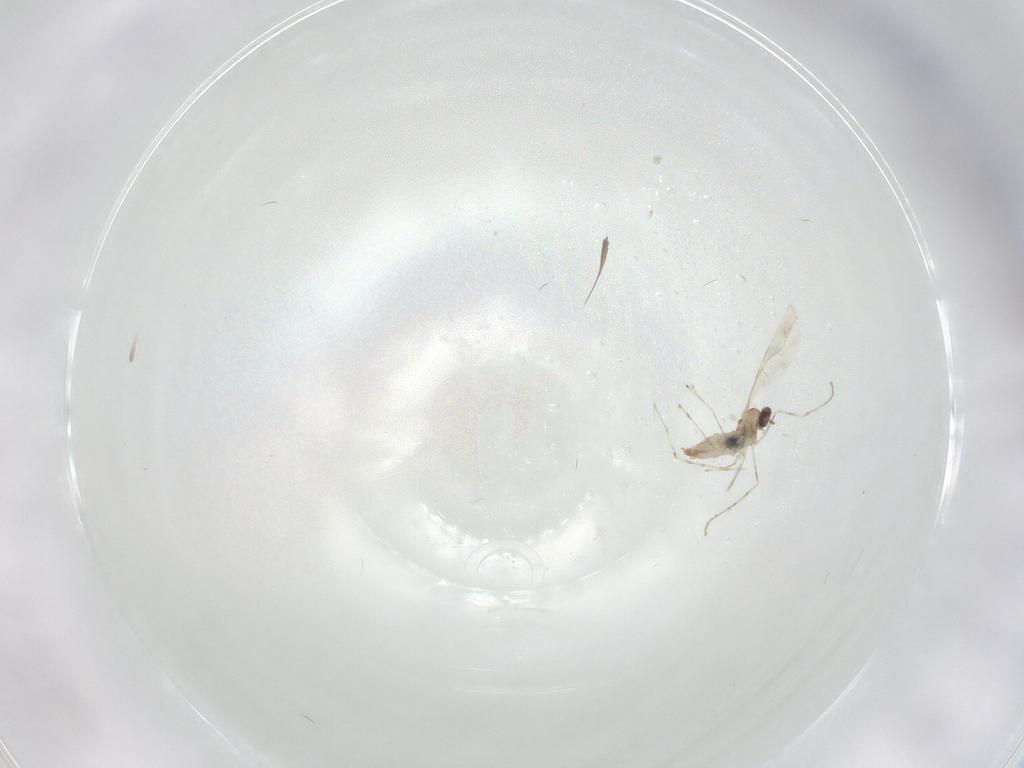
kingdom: Animalia
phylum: Arthropoda
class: Insecta
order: Diptera
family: Cecidomyiidae
